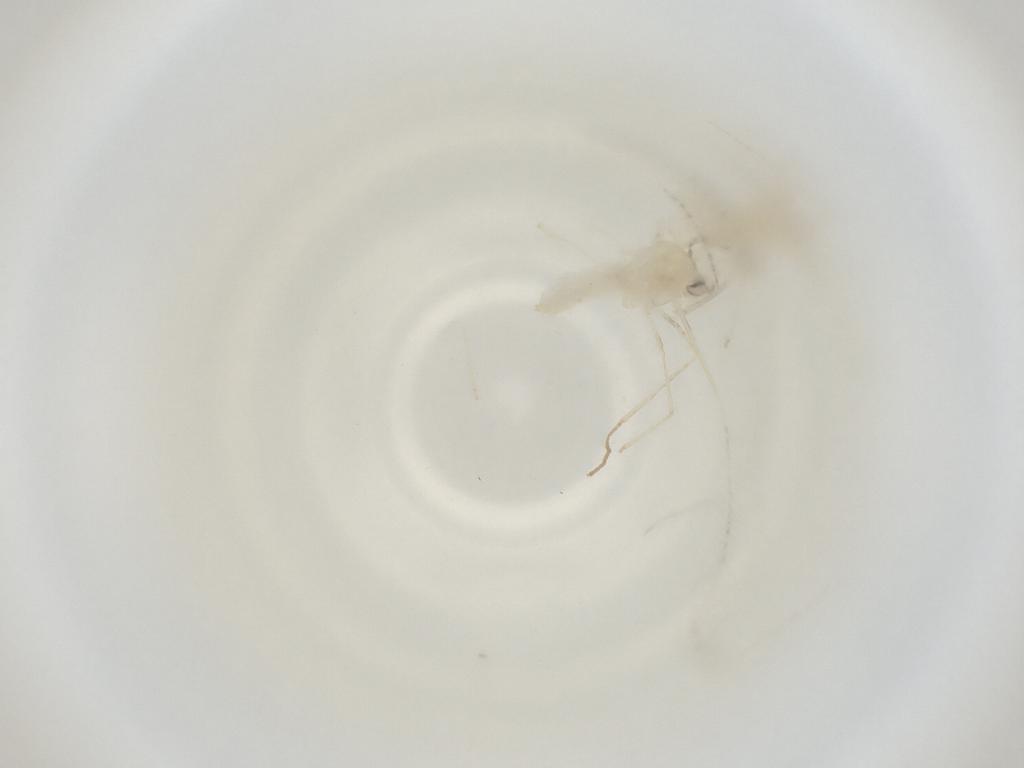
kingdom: Animalia
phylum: Arthropoda
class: Insecta
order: Diptera
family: Cecidomyiidae
